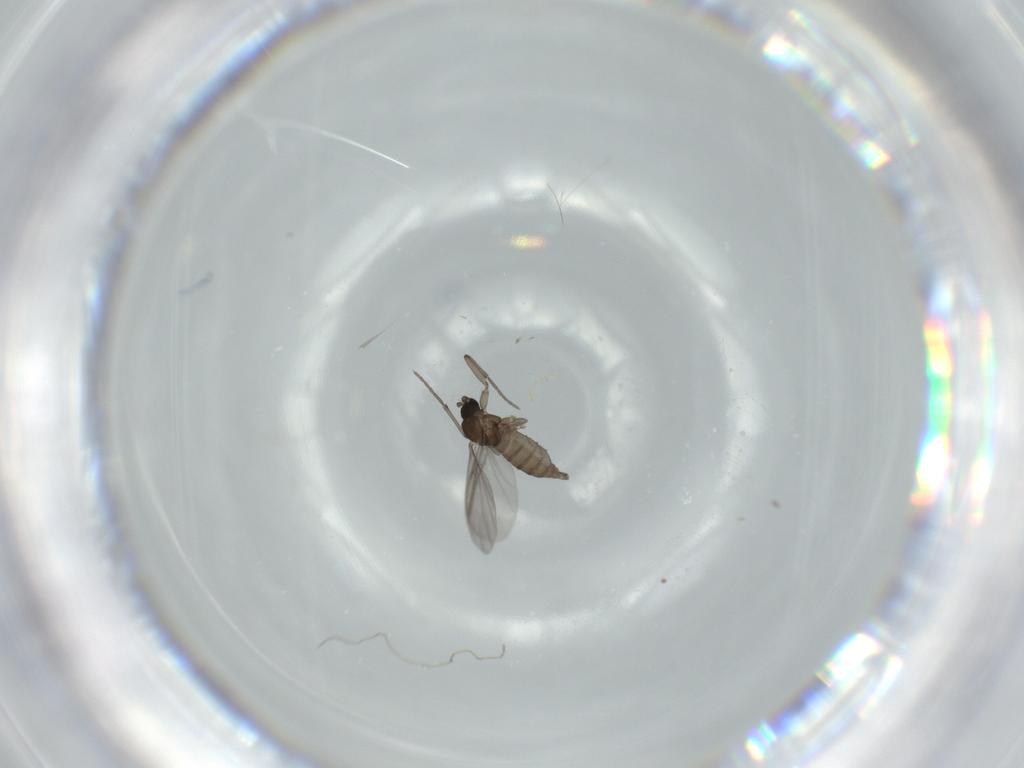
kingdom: Animalia
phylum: Arthropoda
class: Insecta
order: Diptera
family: Sciaridae
